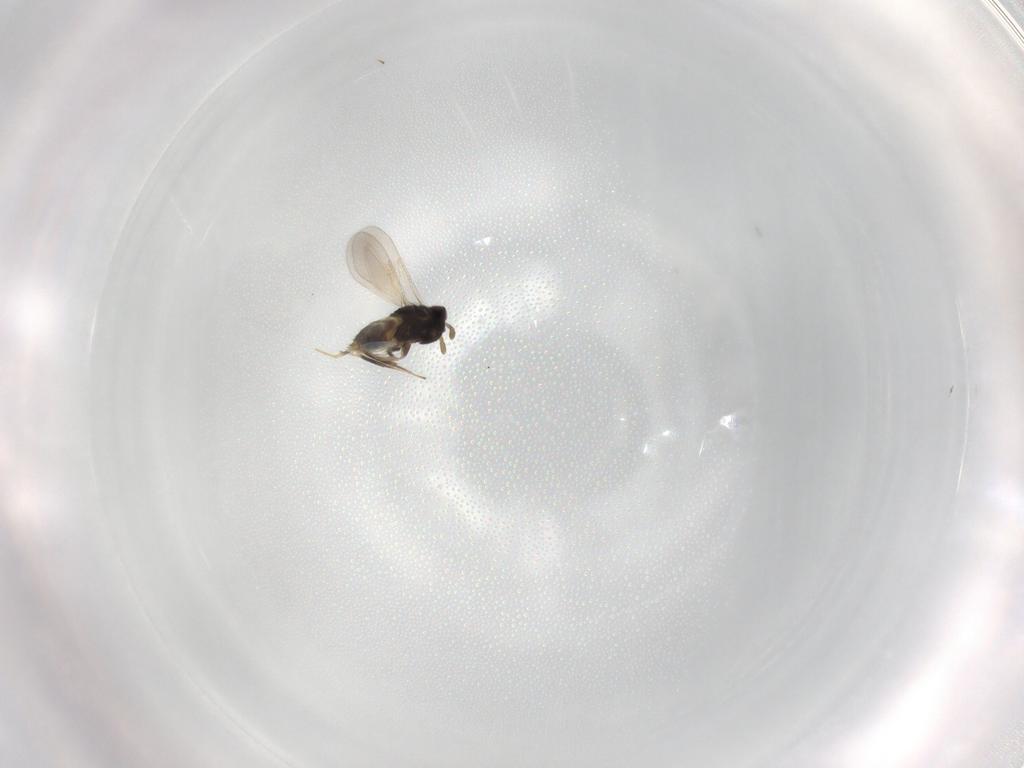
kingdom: Animalia
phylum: Arthropoda
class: Insecta
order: Hymenoptera
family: Aphelinidae
